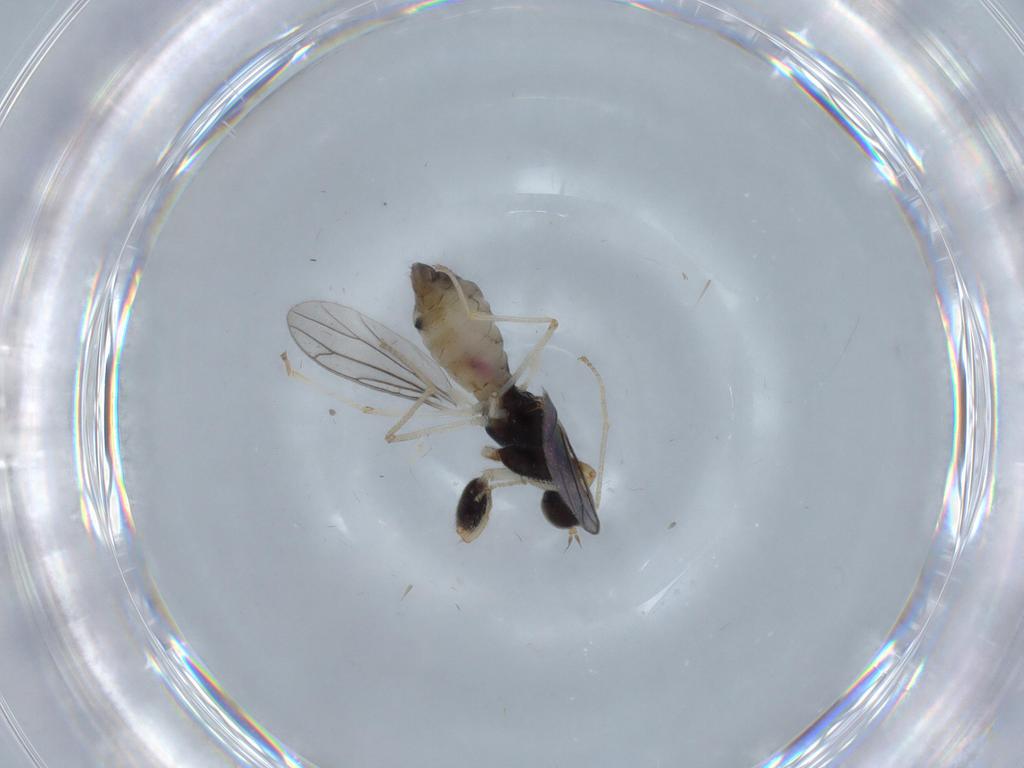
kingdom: Animalia
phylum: Arthropoda
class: Insecta
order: Diptera
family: Empididae
